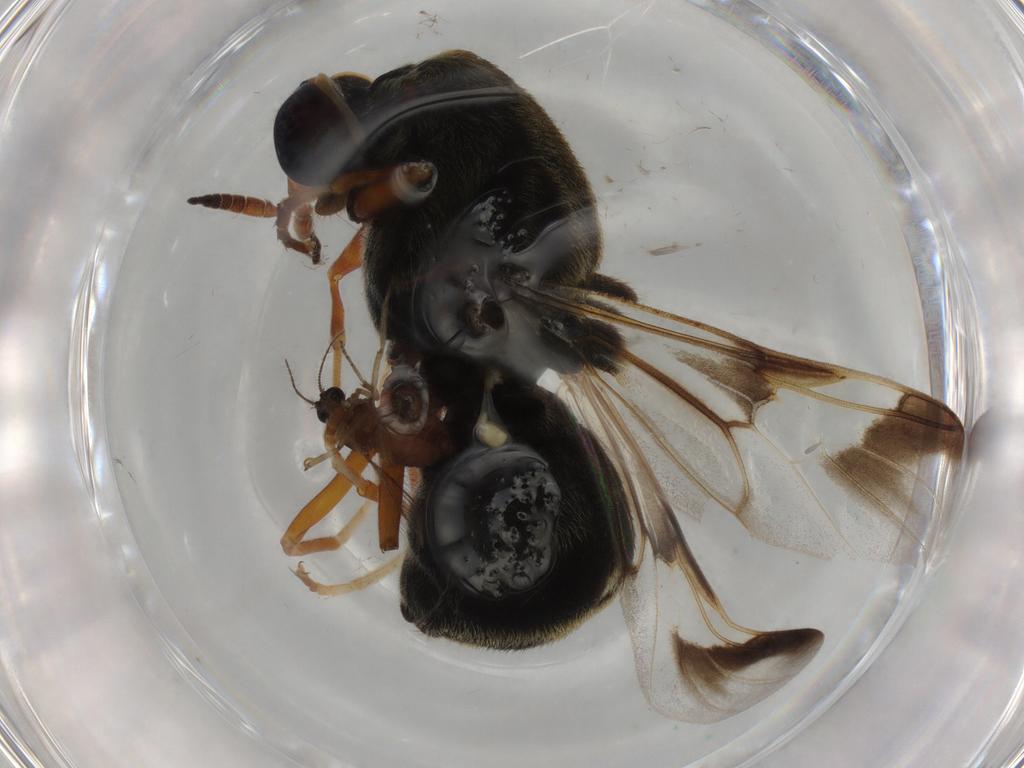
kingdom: Animalia
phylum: Arthropoda
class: Insecta
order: Diptera
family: Stratiomyidae
